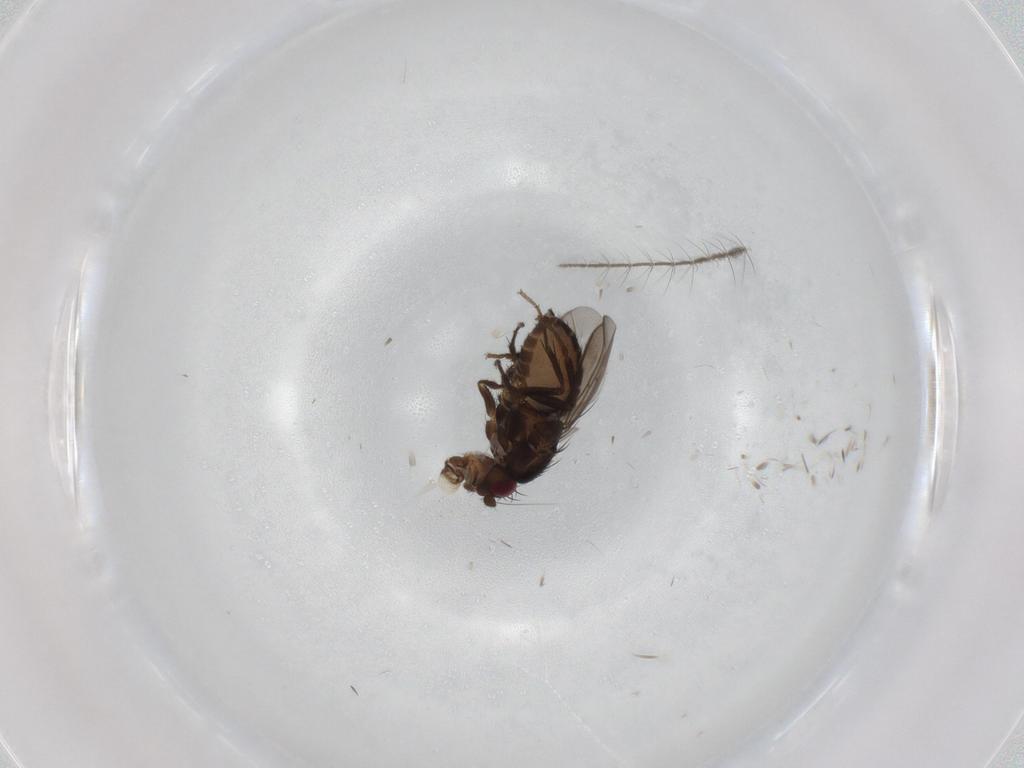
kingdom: Animalia
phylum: Arthropoda
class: Insecta
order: Diptera
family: Sphaeroceridae
